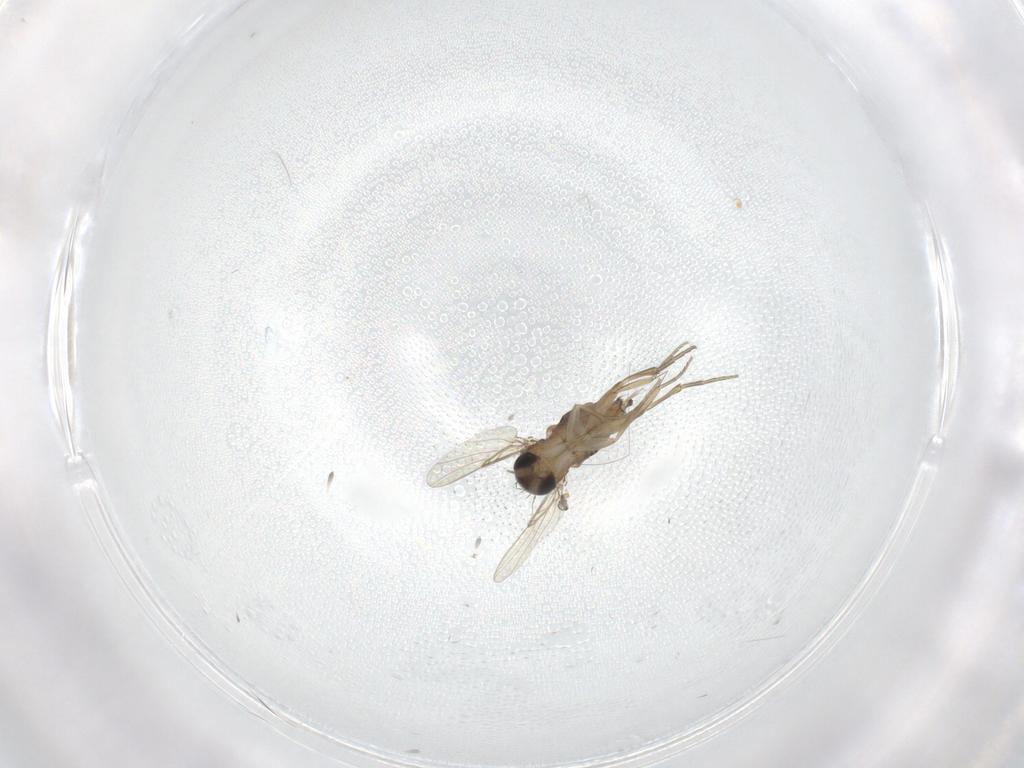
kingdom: Animalia
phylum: Arthropoda
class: Insecta
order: Diptera
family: Phoridae
